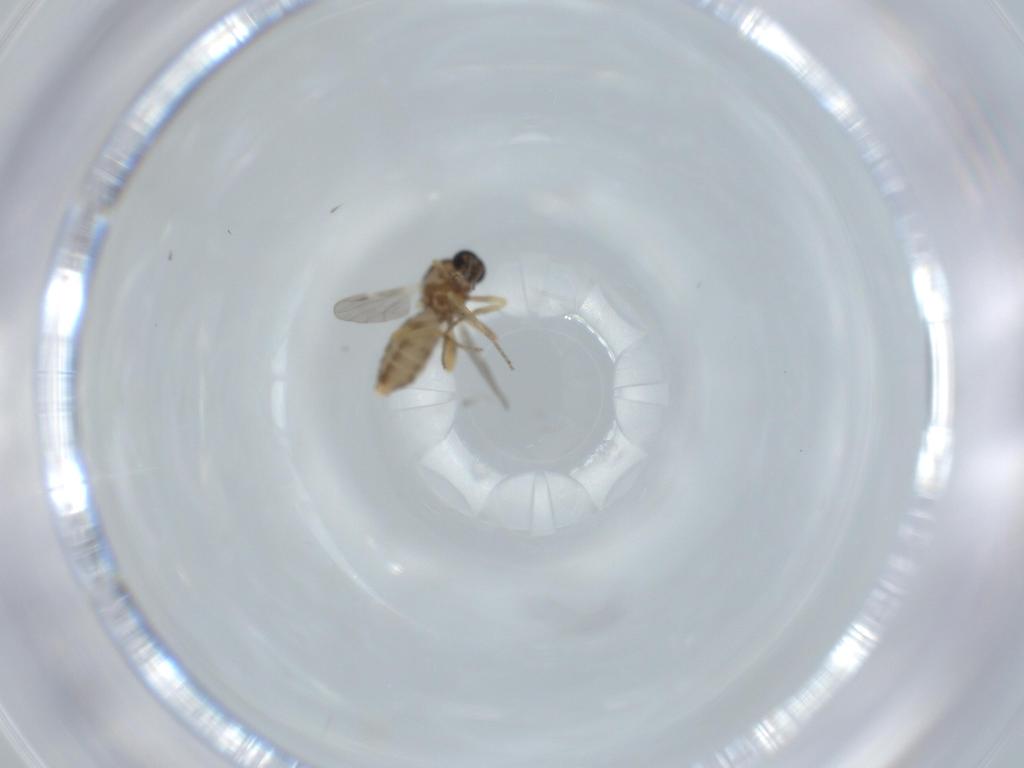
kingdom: Animalia
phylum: Arthropoda
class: Insecta
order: Diptera
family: Ceratopogonidae
